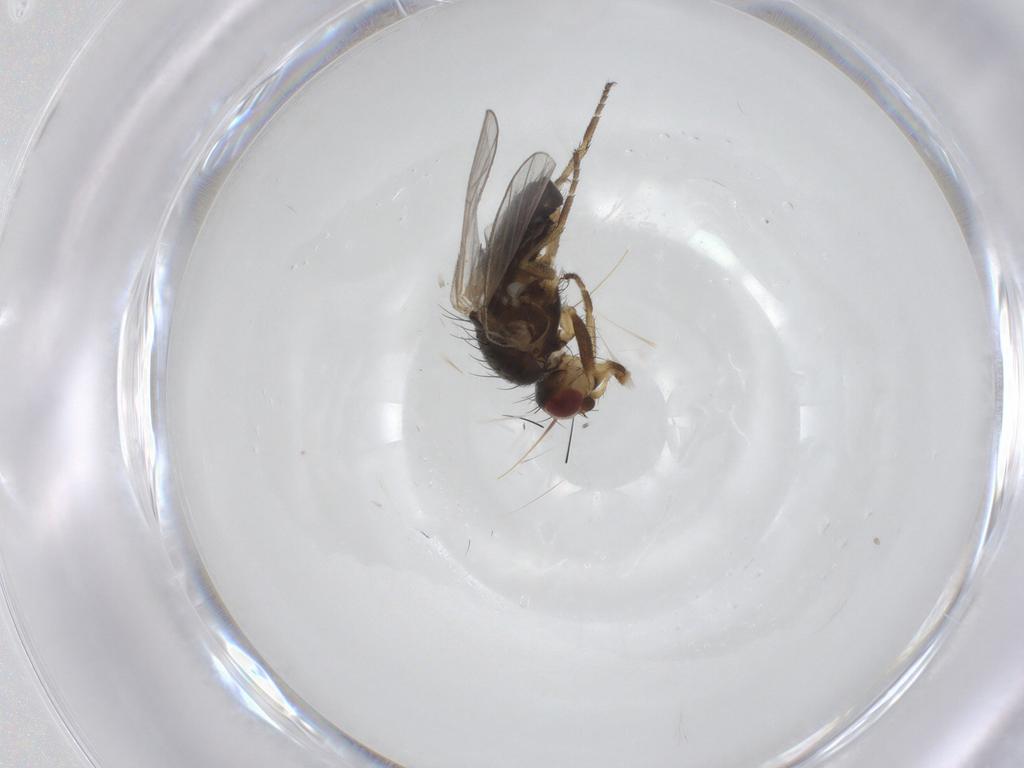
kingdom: Animalia
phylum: Arthropoda
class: Insecta
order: Diptera
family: Heleomyzidae
